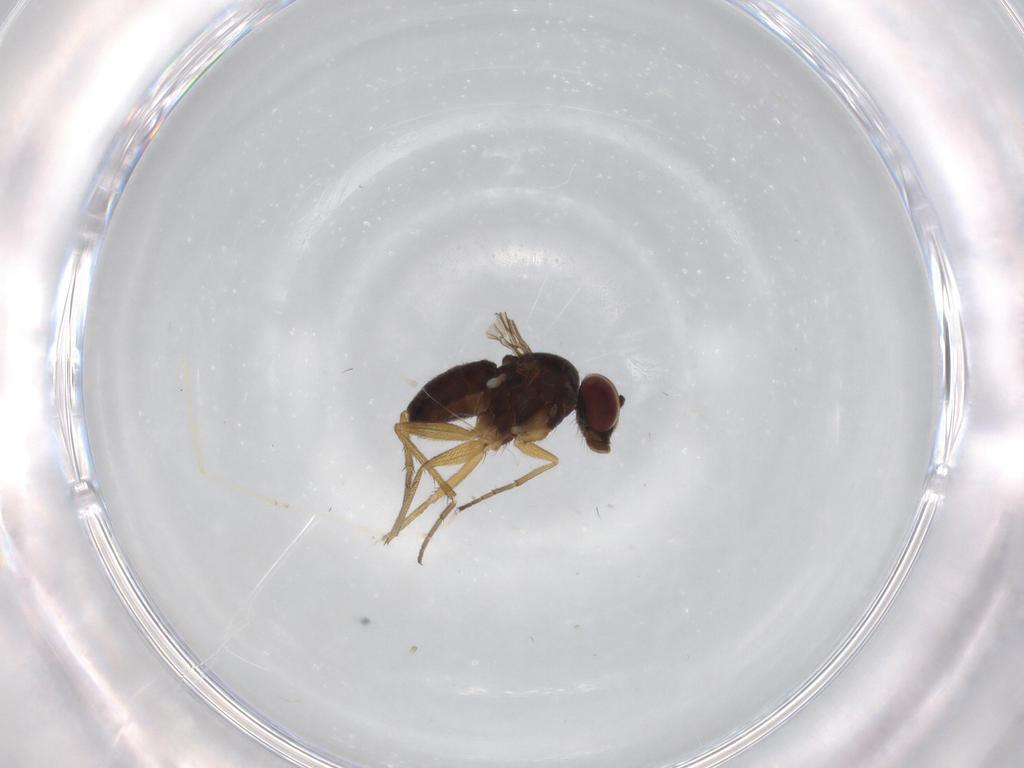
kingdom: Animalia
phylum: Arthropoda
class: Insecta
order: Diptera
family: Dolichopodidae
